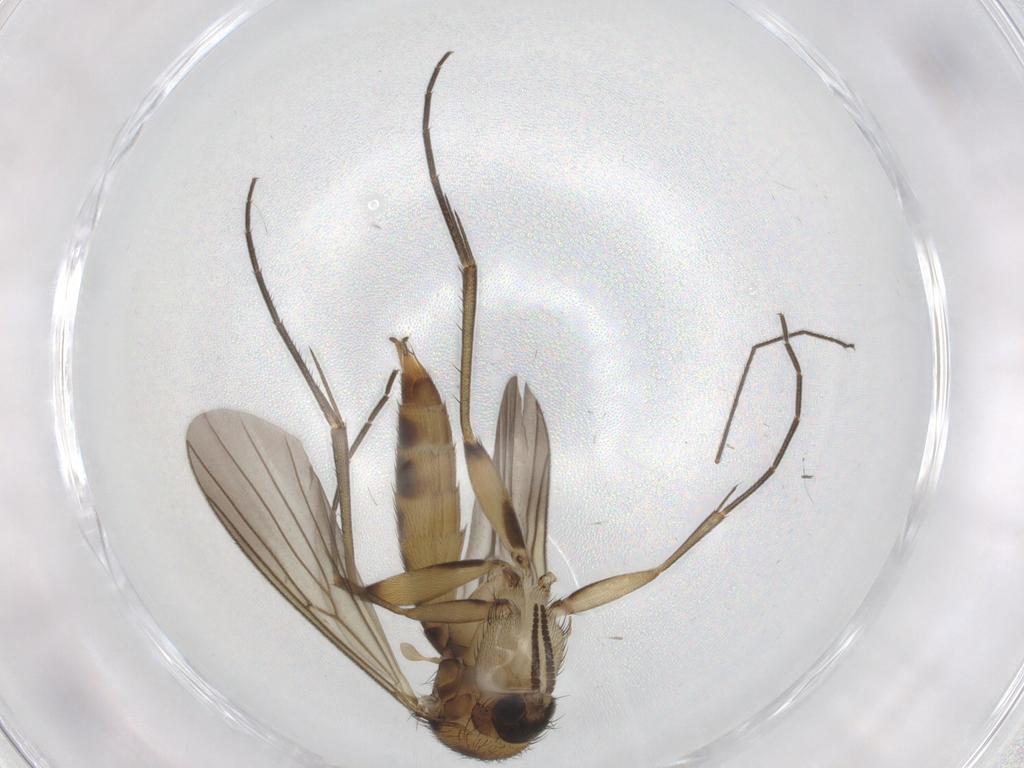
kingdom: Animalia
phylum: Arthropoda
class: Insecta
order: Diptera
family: Mycetophilidae
